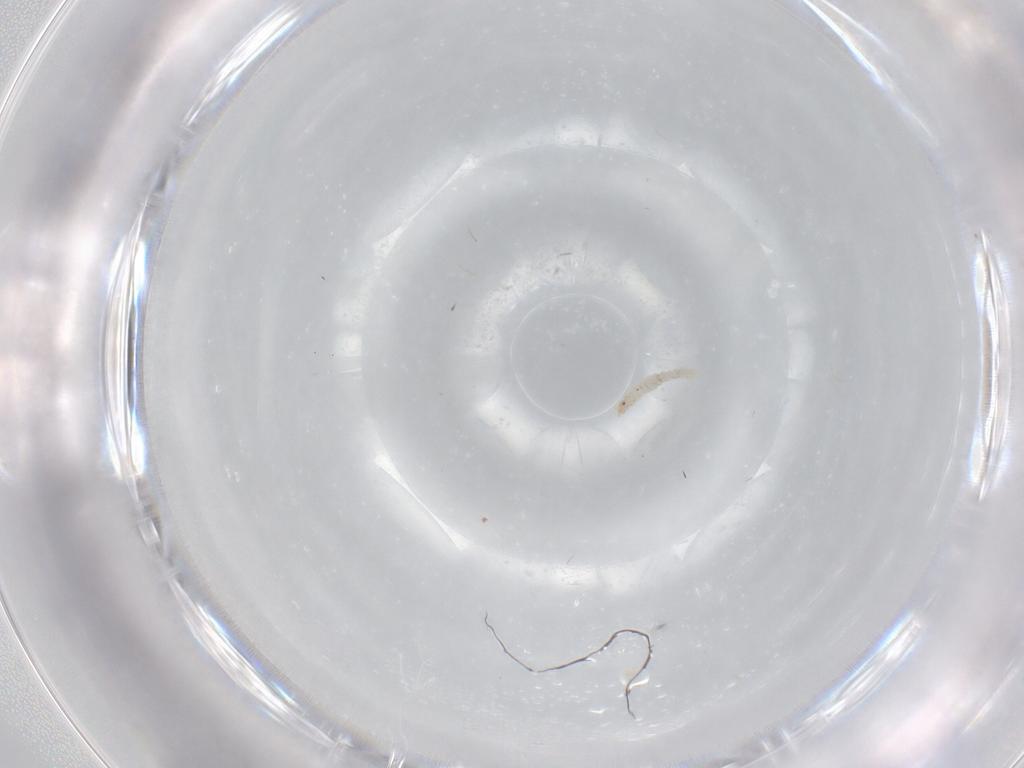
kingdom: Animalia
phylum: Arthropoda
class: Insecta
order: Diptera
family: Cecidomyiidae
